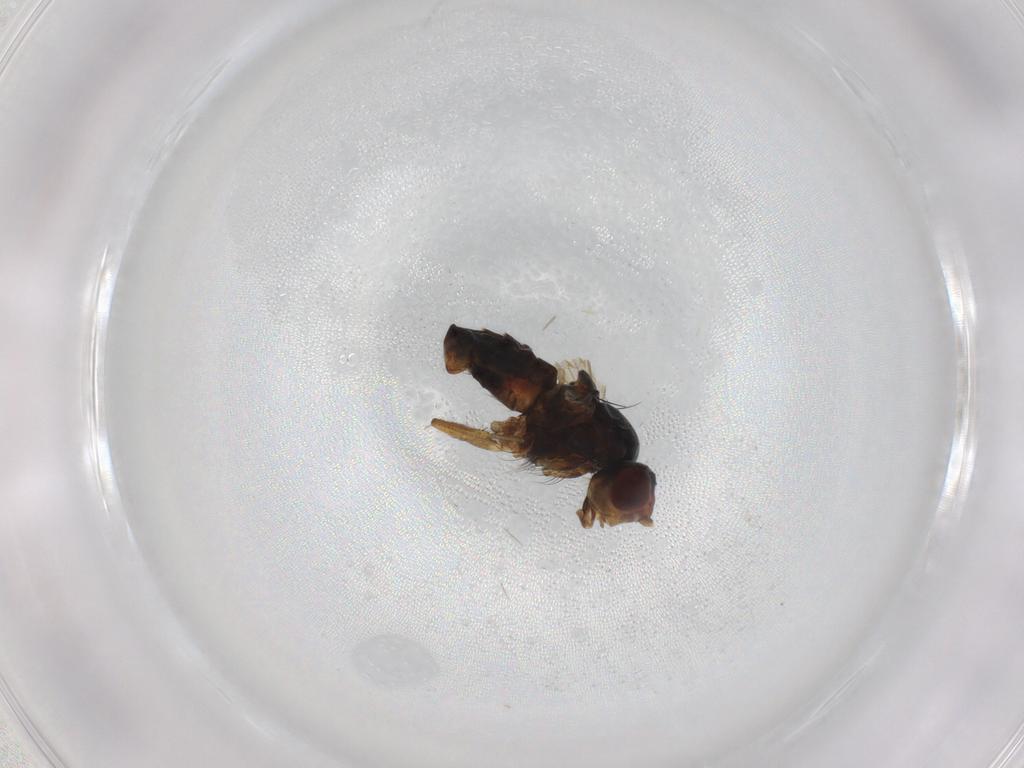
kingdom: Animalia
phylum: Arthropoda
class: Insecta
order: Diptera
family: Heleomyzidae
